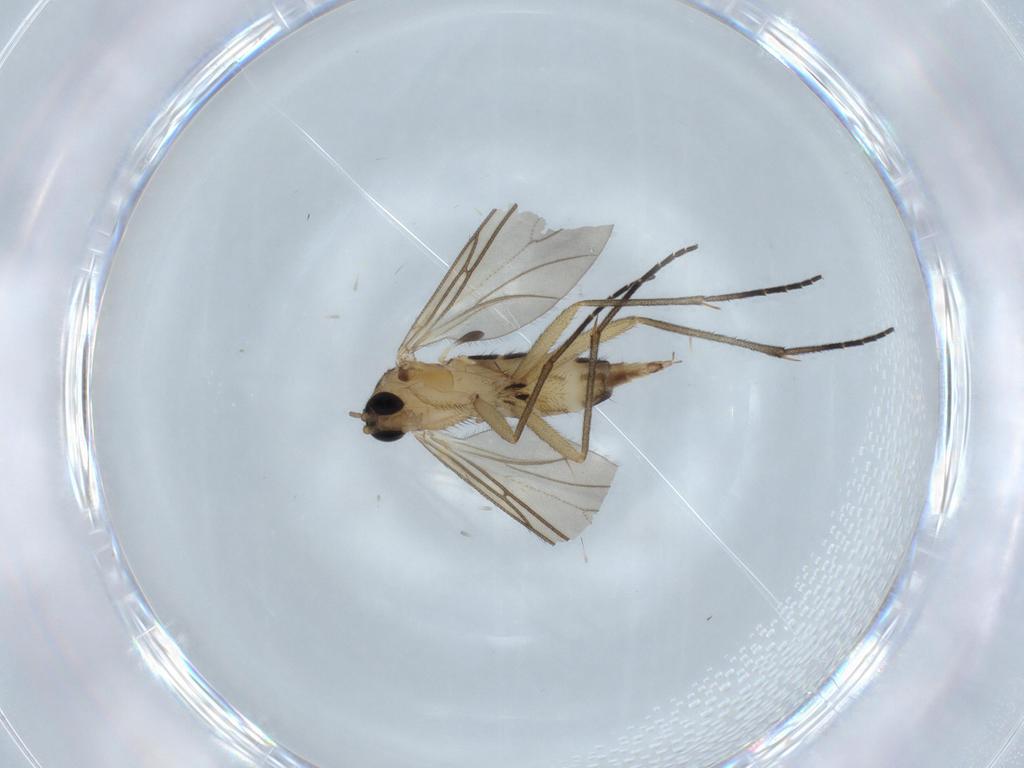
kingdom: Animalia
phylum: Arthropoda
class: Insecta
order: Diptera
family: Sciaridae
